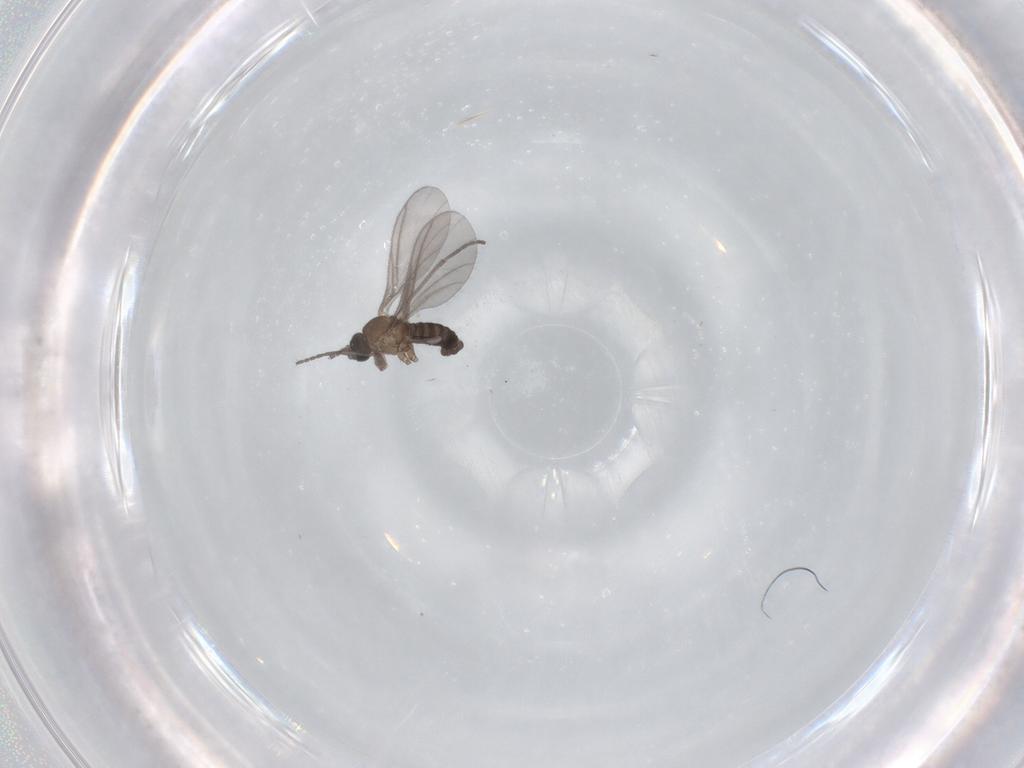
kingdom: Animalia
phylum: Arthropoda
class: Insecta
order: Diptera
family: Sciaridae
